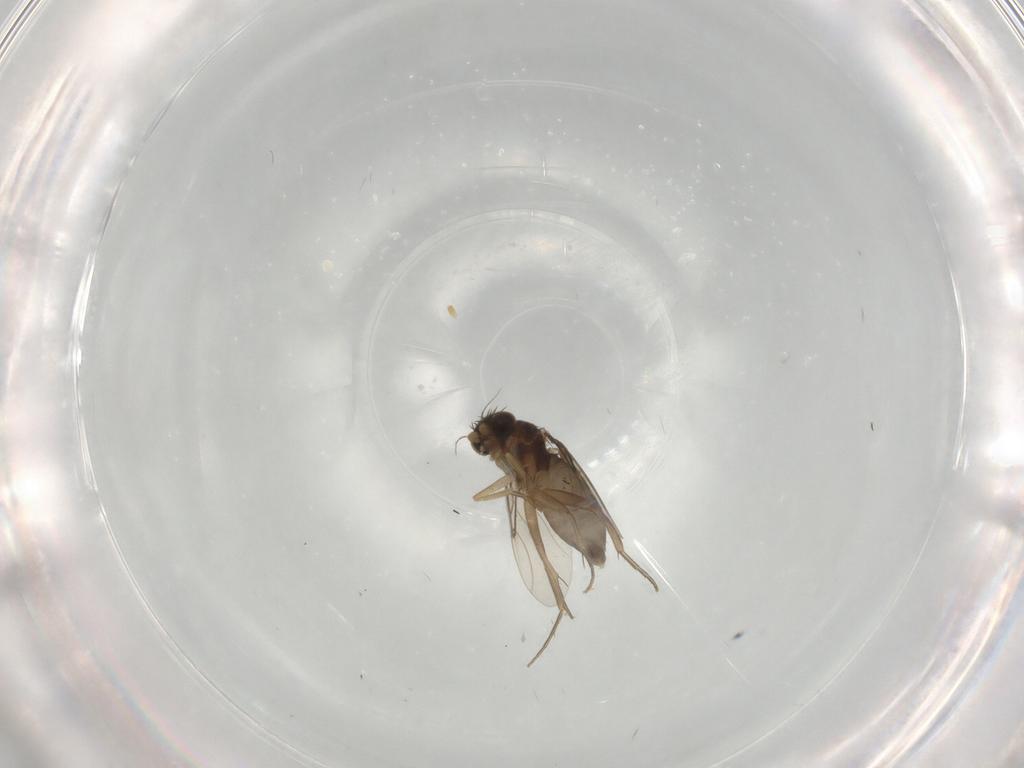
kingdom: Animalia
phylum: Arthropoda
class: Insecta
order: Diptera
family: Phoridae
